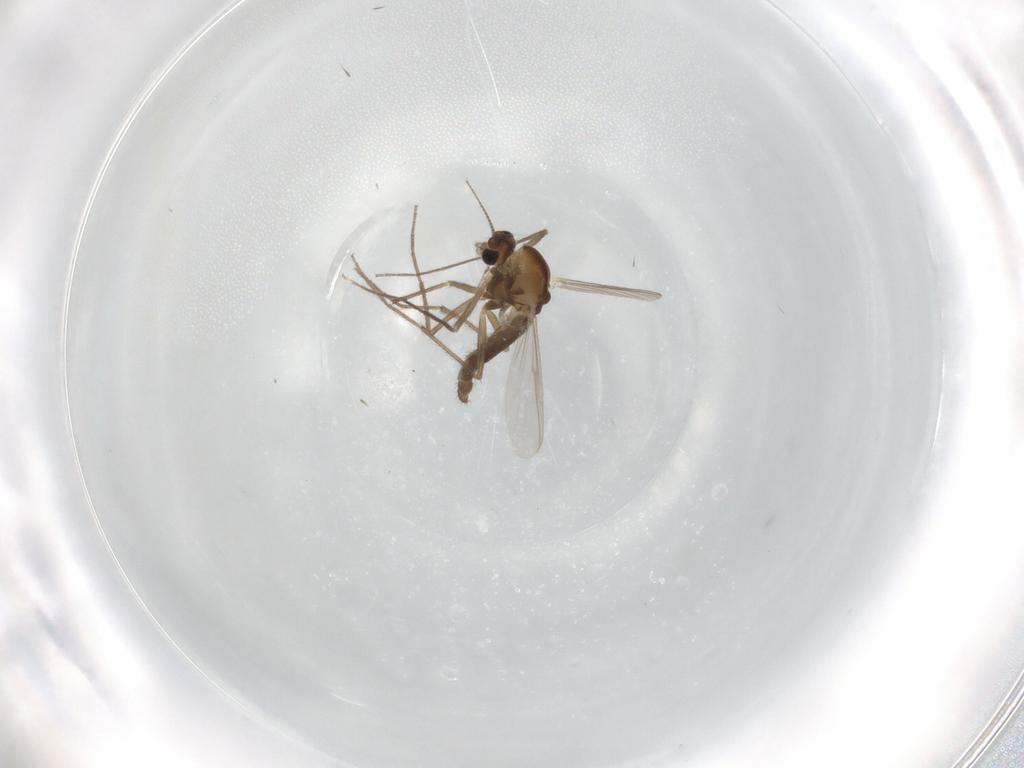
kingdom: Animalia
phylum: Arthropoda
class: Insecta
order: Diptera
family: Chironomidae
